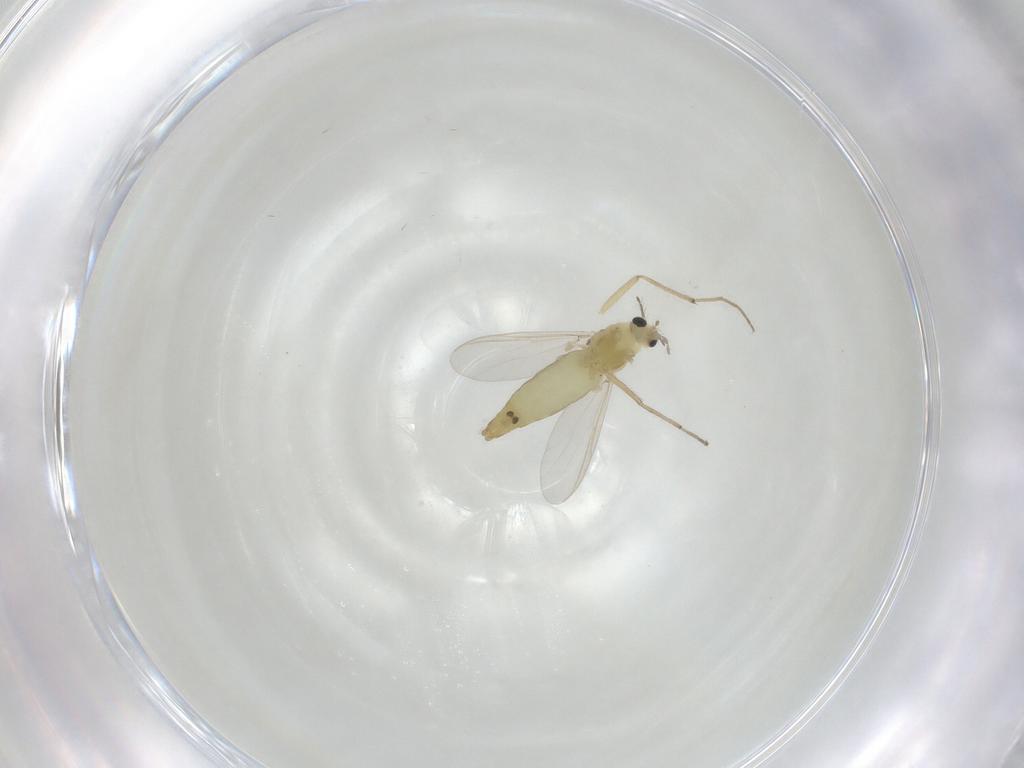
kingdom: Animalia
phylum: Arthropoda
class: Insecta
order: Diptera
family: Chironomidae
